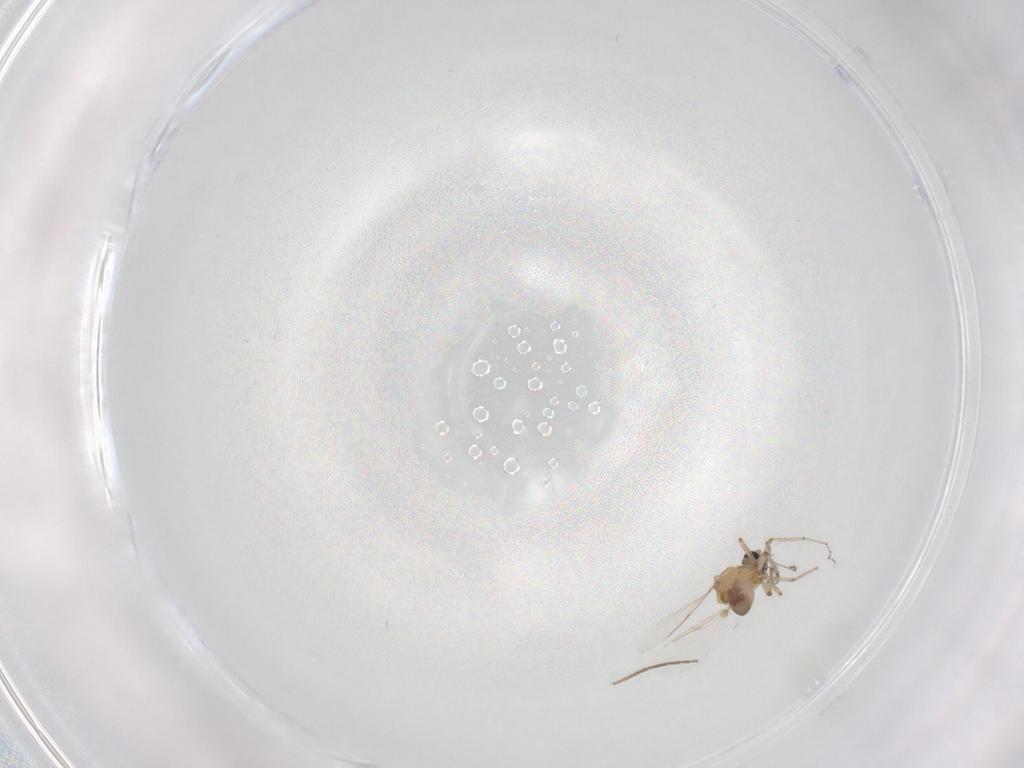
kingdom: Animalia
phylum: Arthropoda
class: Insecta
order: Diptera
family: Ceratopogonidae
